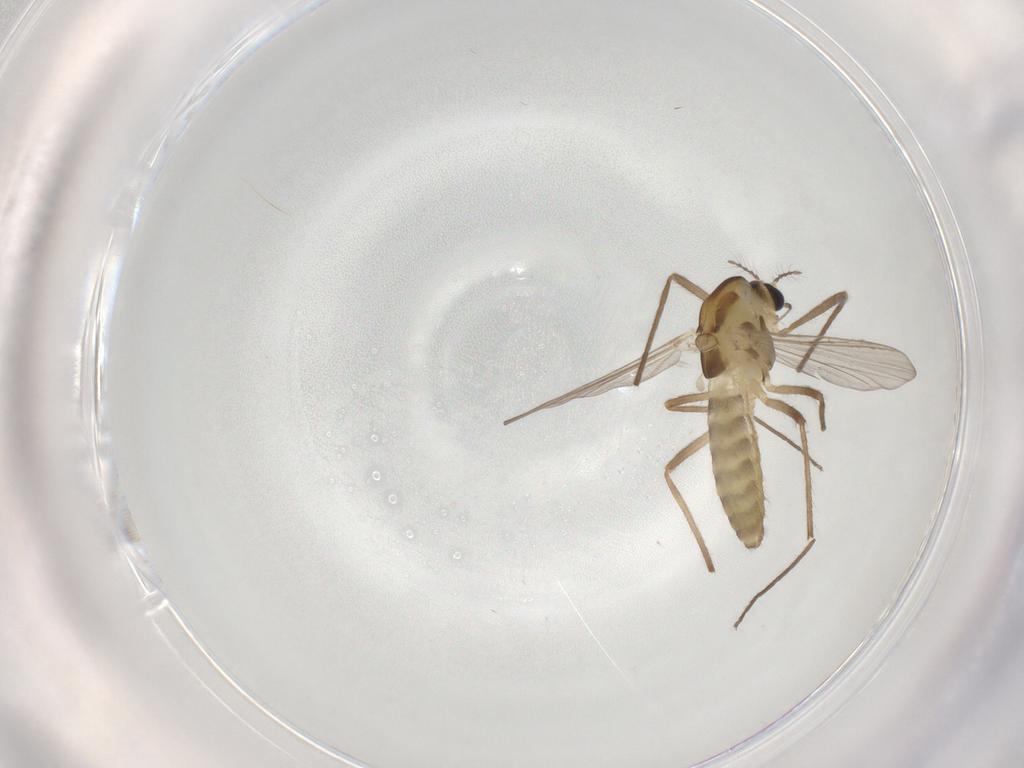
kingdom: Animalia
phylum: Arthropoda
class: Insecta
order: Diptera
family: Chironomidae
